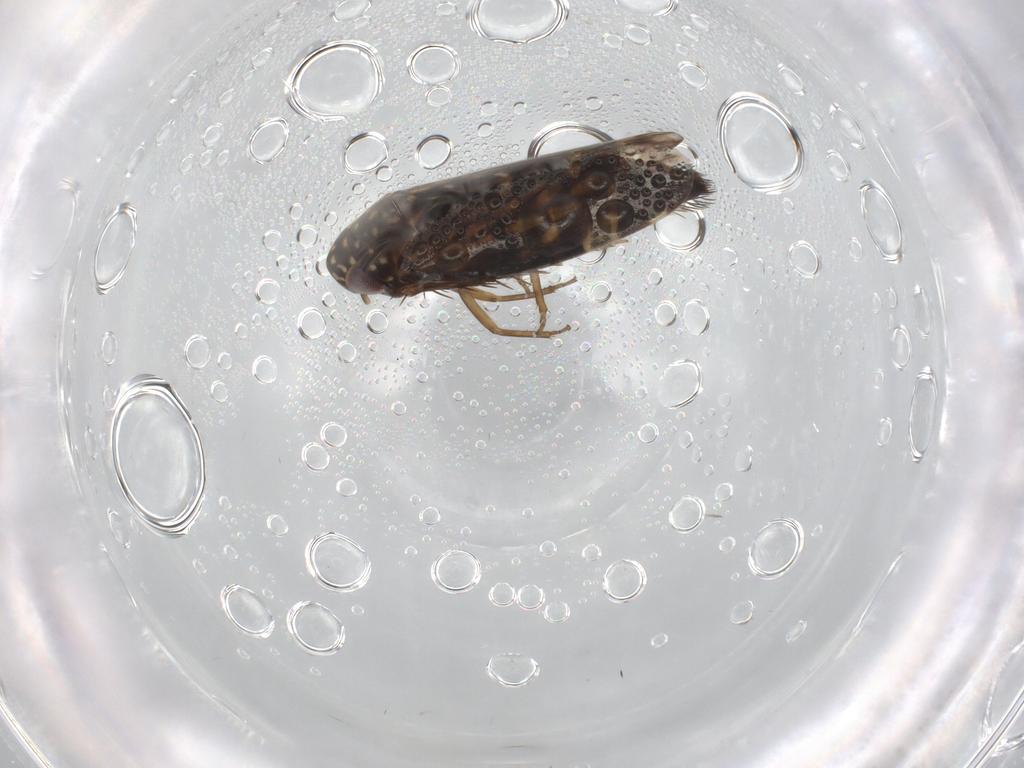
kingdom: Animalia
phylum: Arthropoda
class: Insecta
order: Hemiptera
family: Cicadellidae
